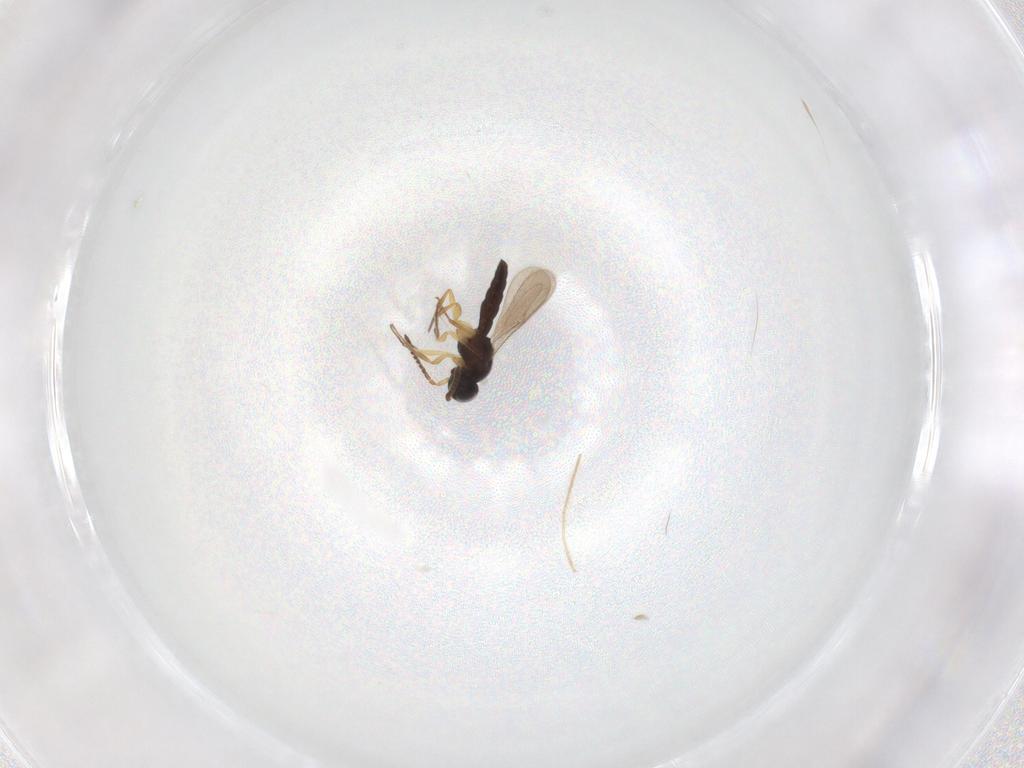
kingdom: Animalia
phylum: Arthropoda
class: Insecta
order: Hymenoptera
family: Scelionidae
